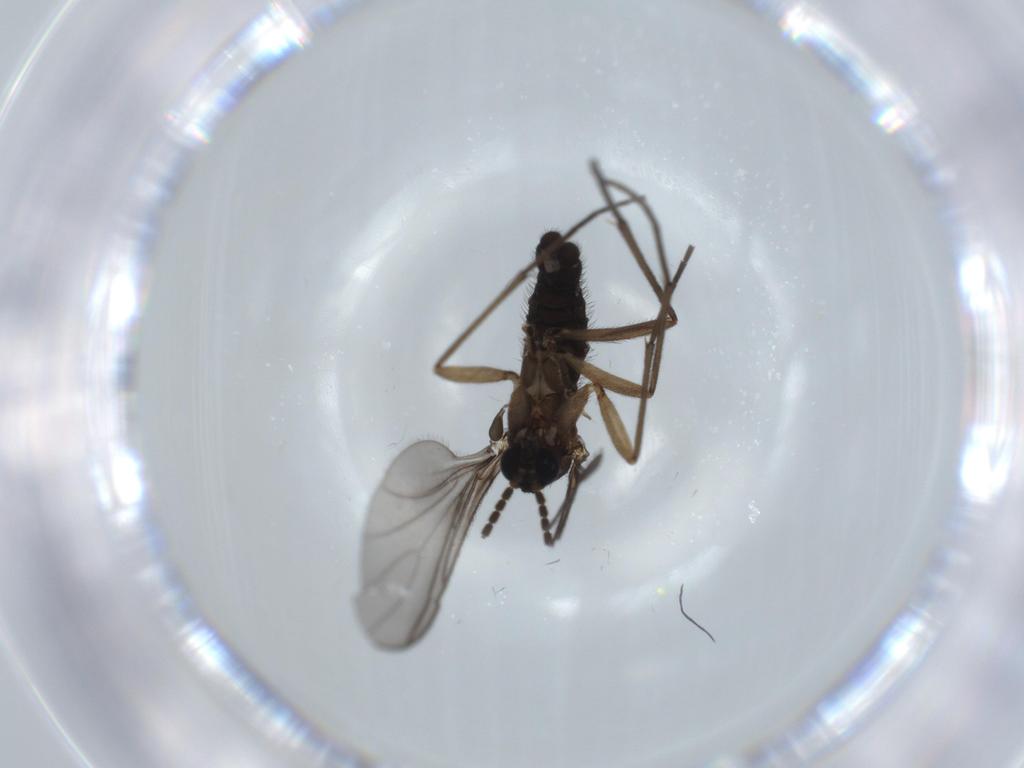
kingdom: Animalia
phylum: Arthropoda
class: Insecta
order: Diptera
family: Sciaridae
